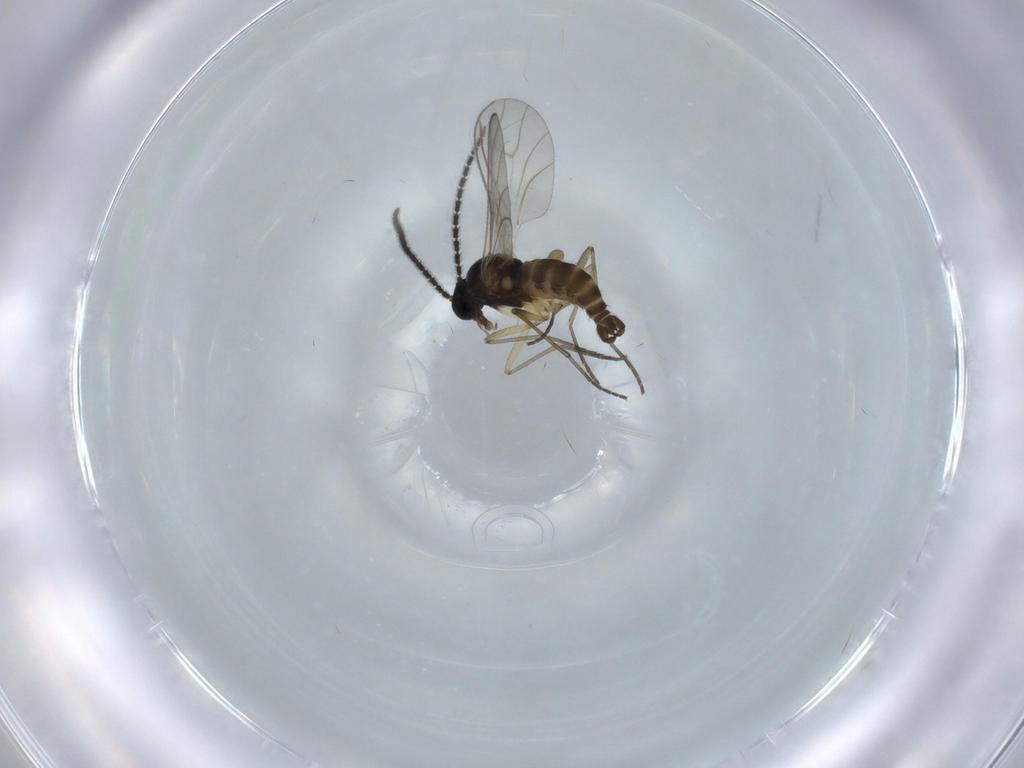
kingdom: Animalia
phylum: Arthropoda
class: Insecta
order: Diptera
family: Sciaridae
